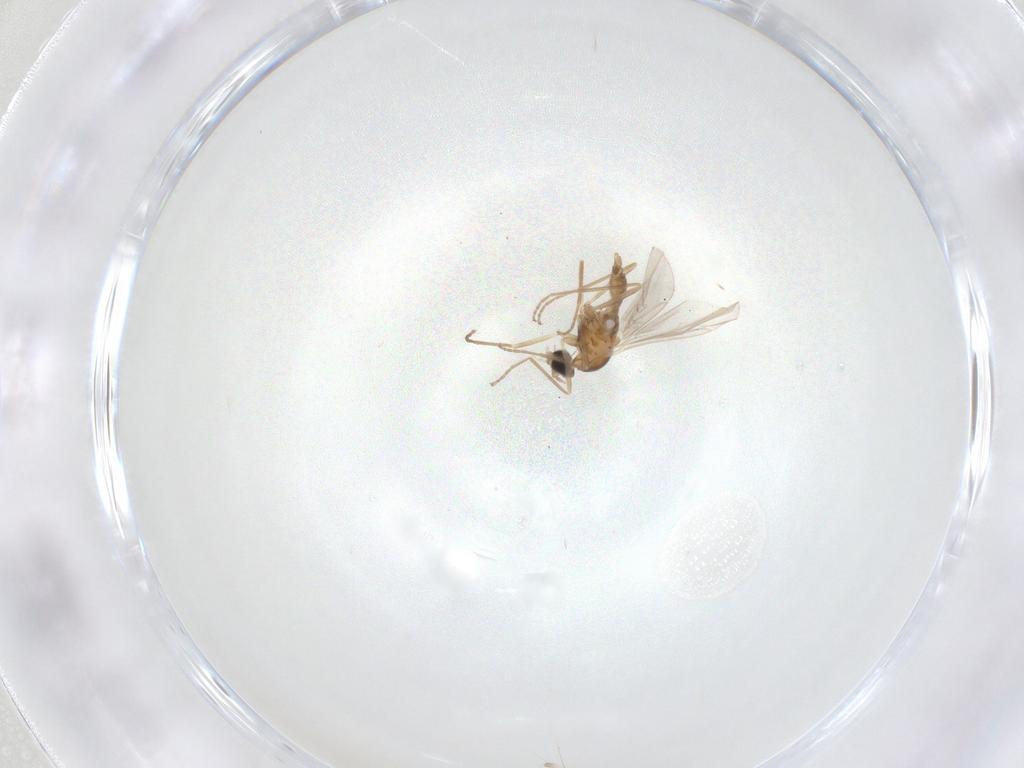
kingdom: Animalia
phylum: Arthropoda
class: Insecta
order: Diptera
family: Cecidomyiidae
